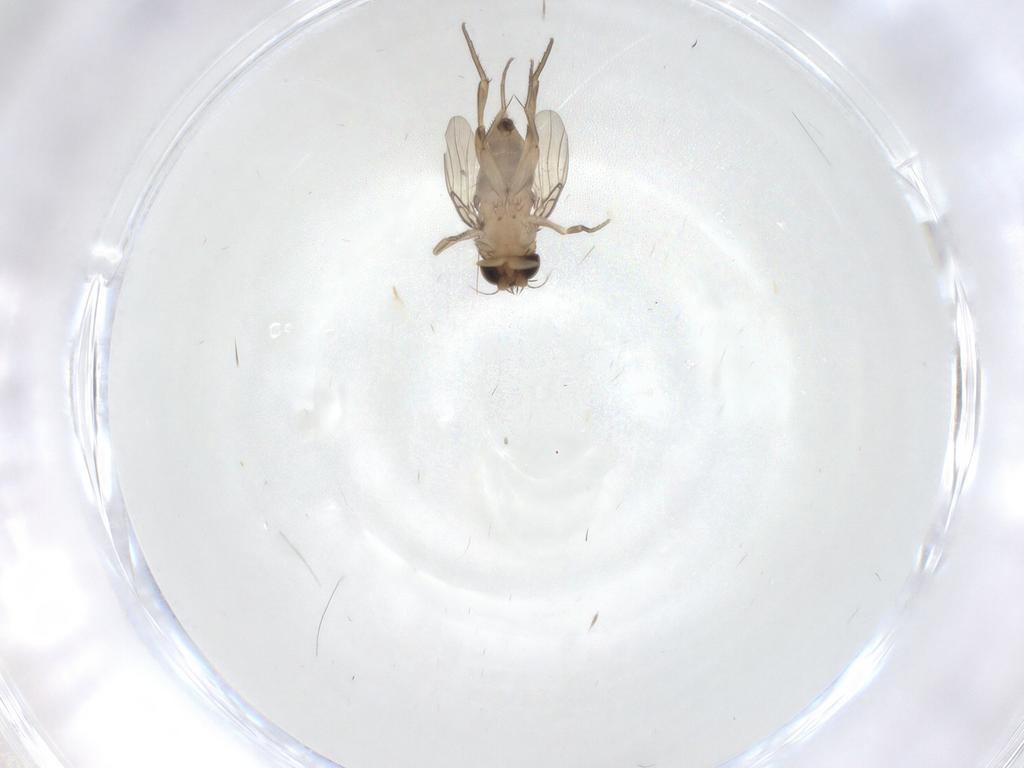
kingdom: Animalia
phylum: Arthropoda
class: Insecta
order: Diptera
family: Phoridae
